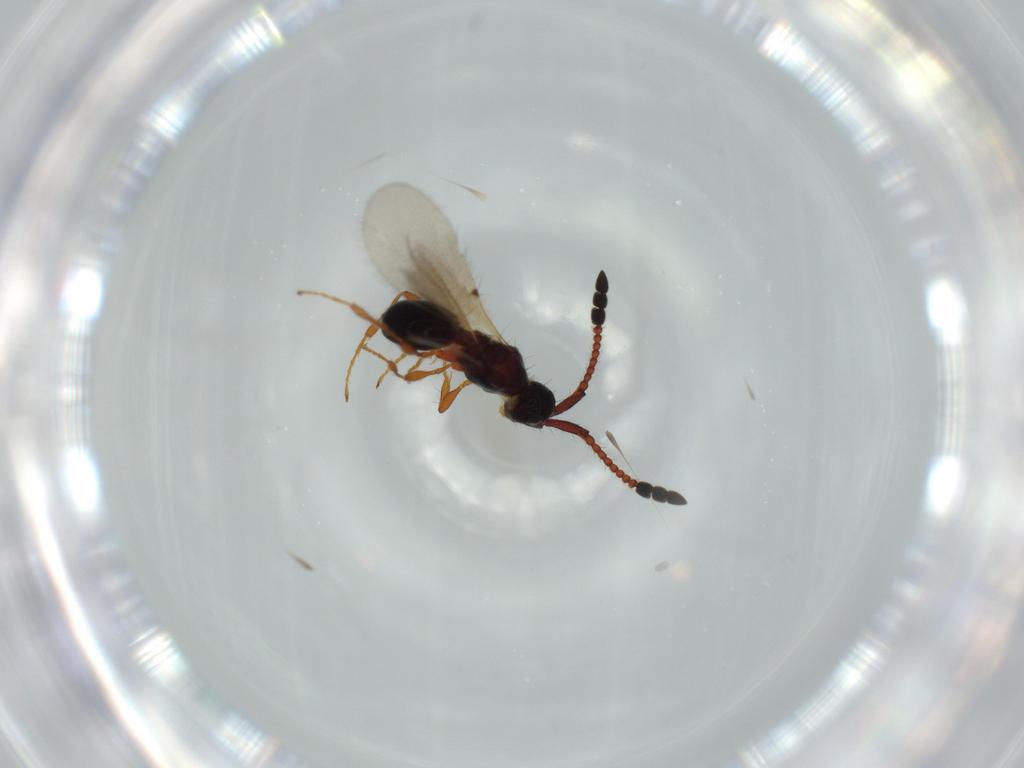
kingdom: Animalia
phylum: Arthropoda
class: Insecta
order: Hymenoptera
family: Diapriidae
